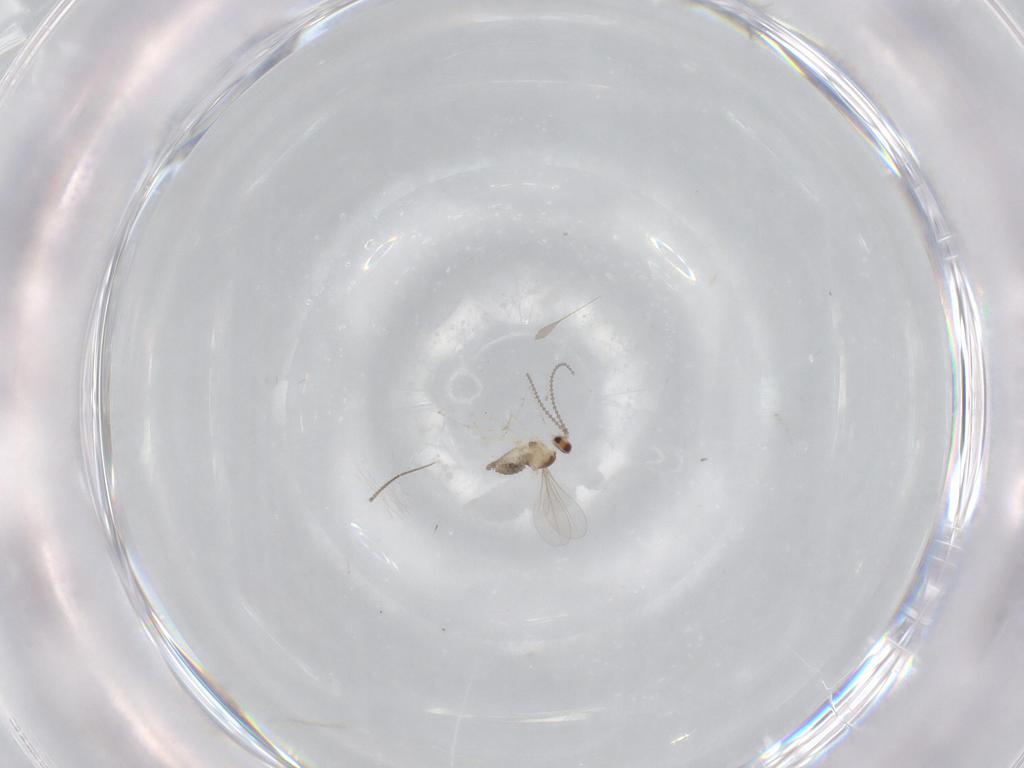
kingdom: Animalia
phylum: Arthropoda
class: Insecta
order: Diptera
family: Cecidomyiidae
